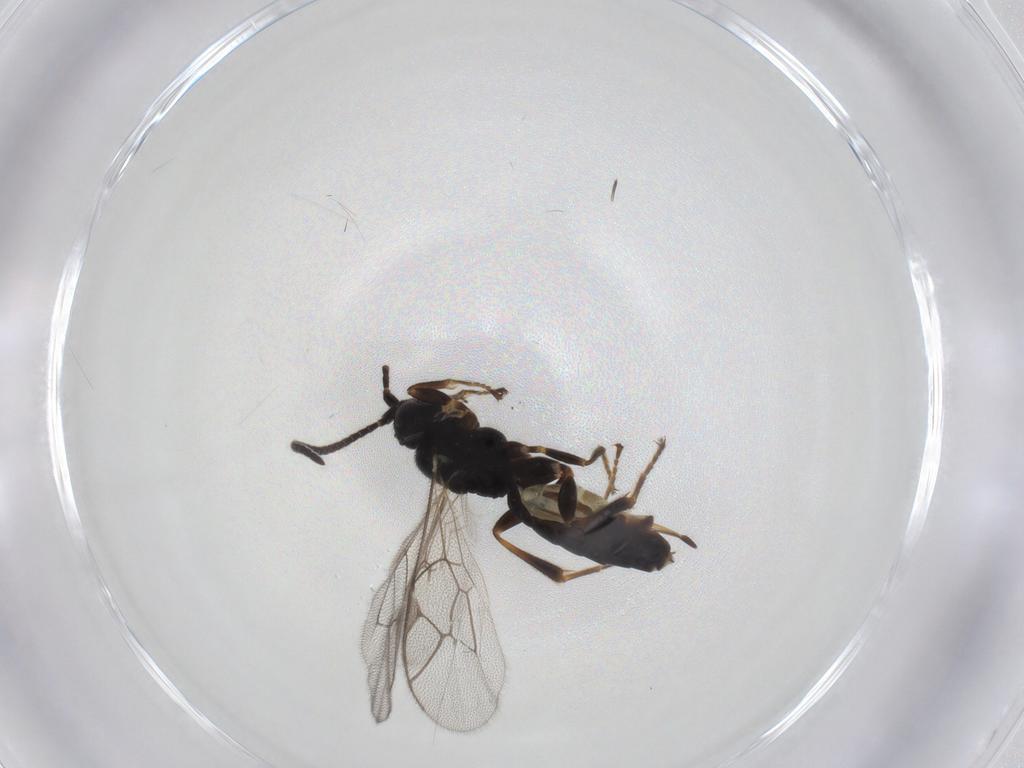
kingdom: Animalia
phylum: Arthropoda
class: Insecta
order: Hymenoptera
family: Ichneumonidae
